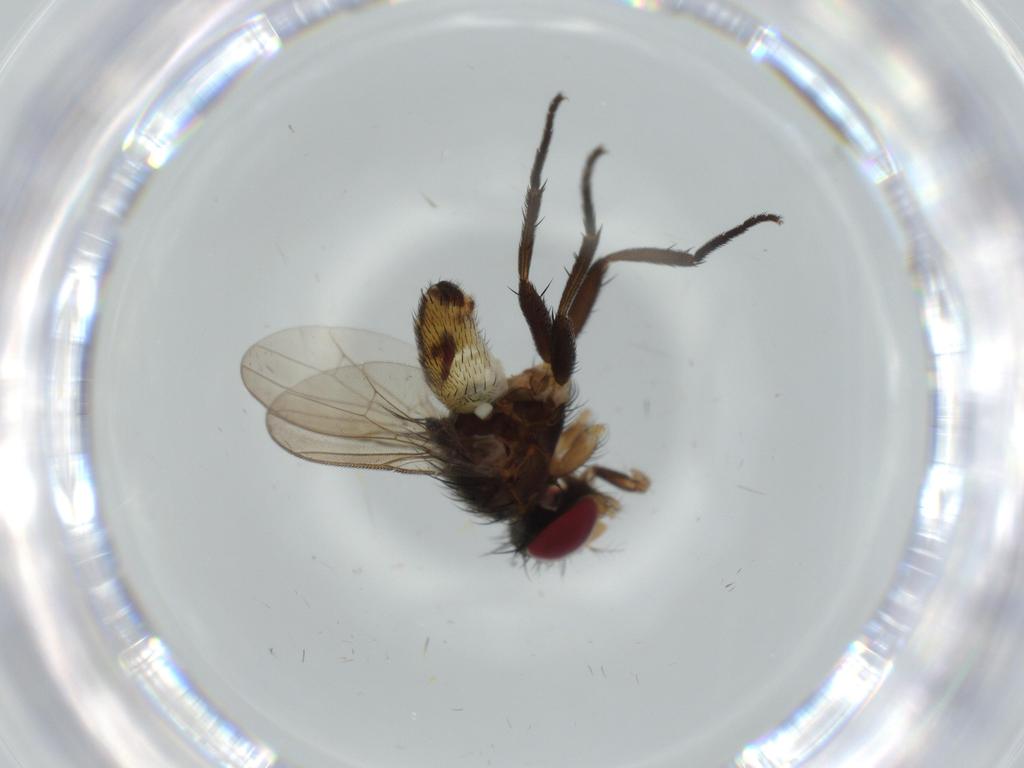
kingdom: Animalia
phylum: Arthropoda
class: Insecta
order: Diptera
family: Anthomyiidae
